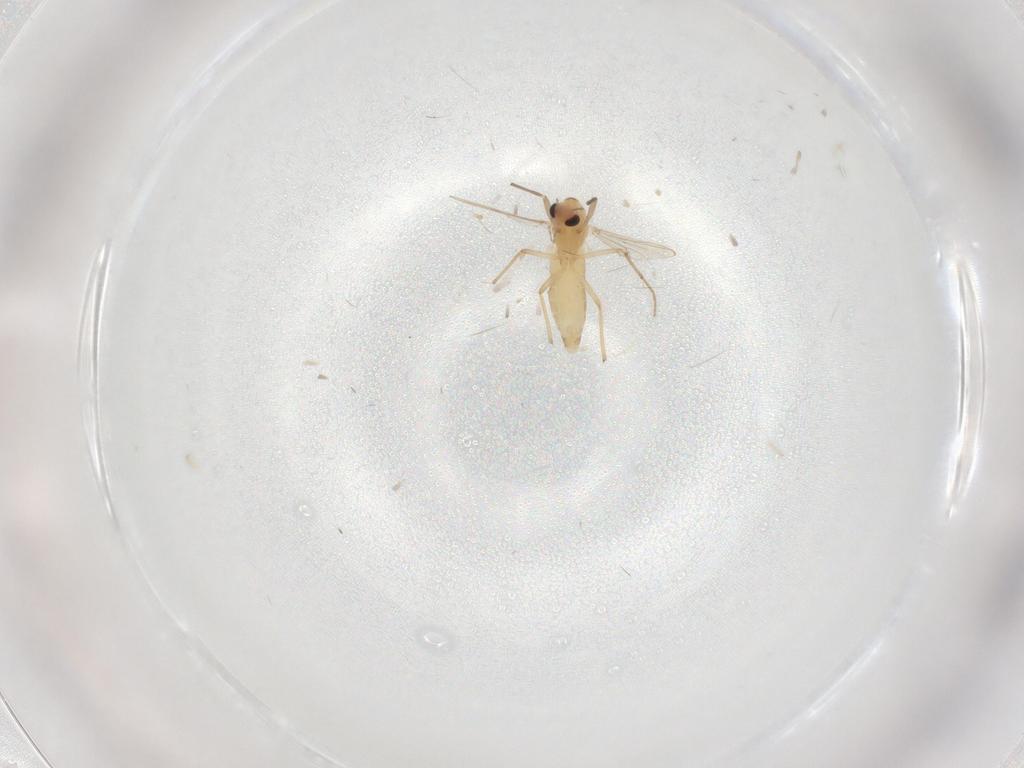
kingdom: Animalia
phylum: Arthropoda
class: Insecta
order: Diptera
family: Chironomidae
